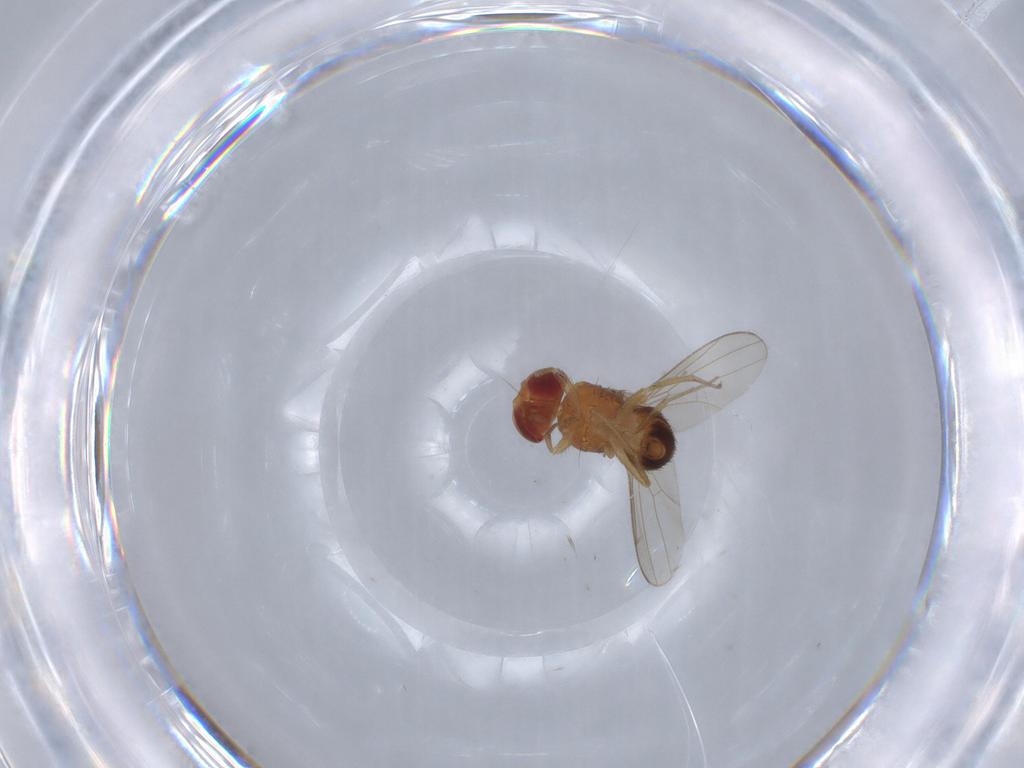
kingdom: Animalia
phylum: Arthropoda
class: Insecta
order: Diptera
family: Drosophilidae
